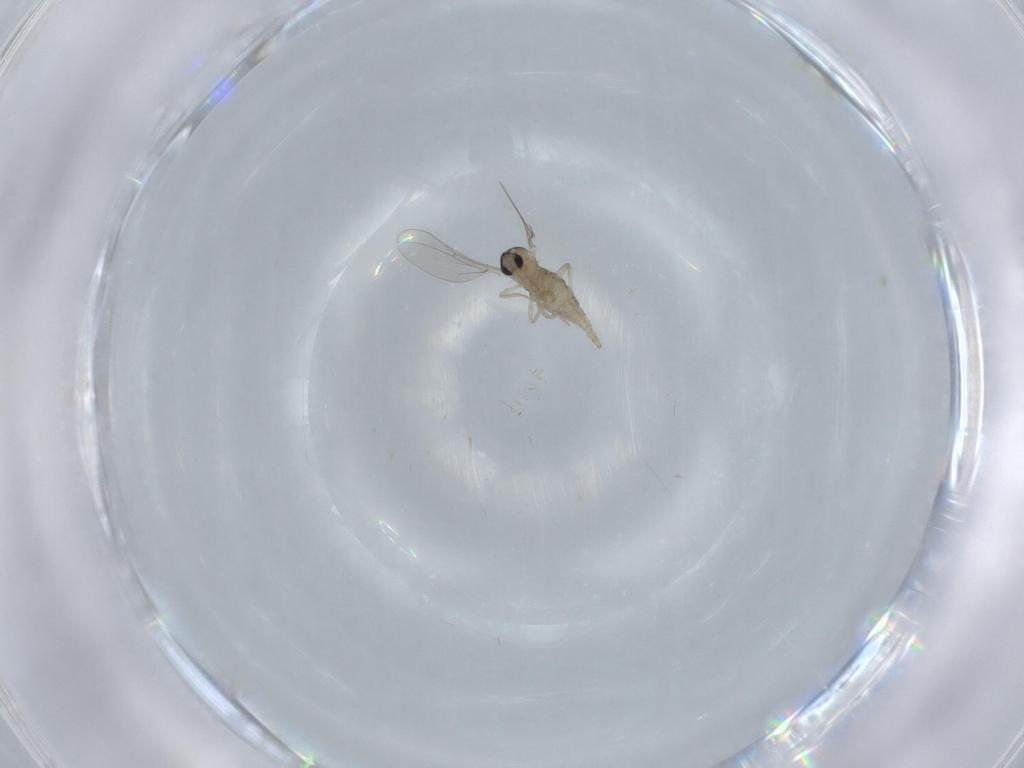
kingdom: Animalia
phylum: Arthropoda
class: Insecta
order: Diptera
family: Cecidomyiidae
